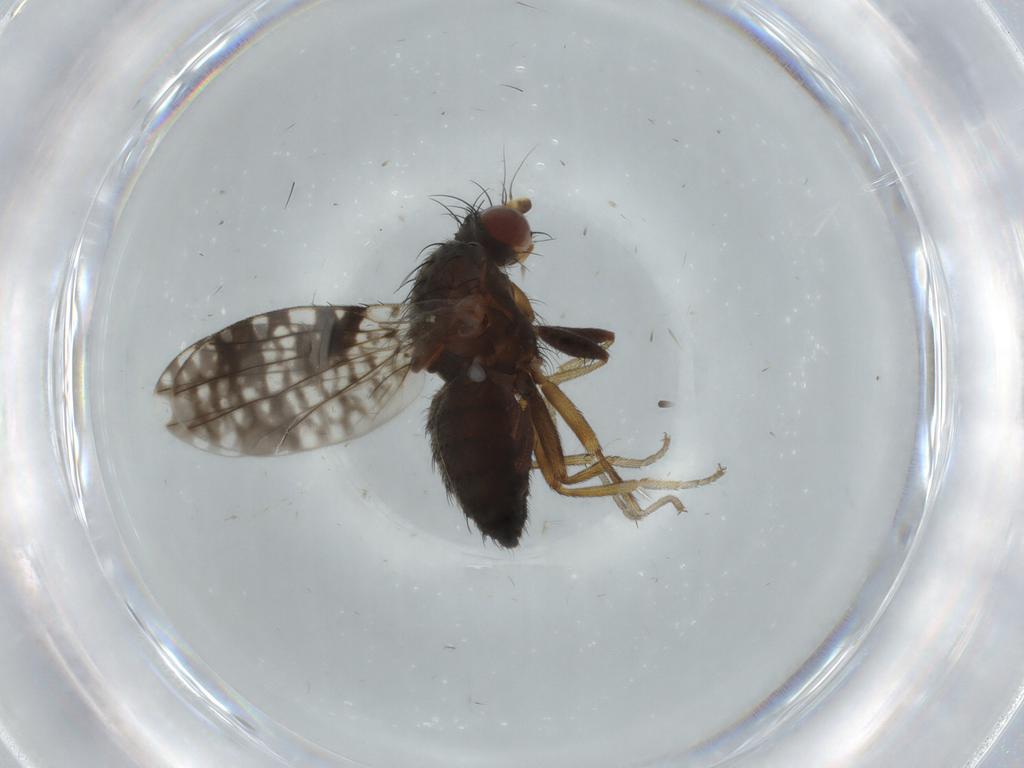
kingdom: Animalia
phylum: Arthropoda
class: Insecta
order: Diptera
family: Tephritidae
